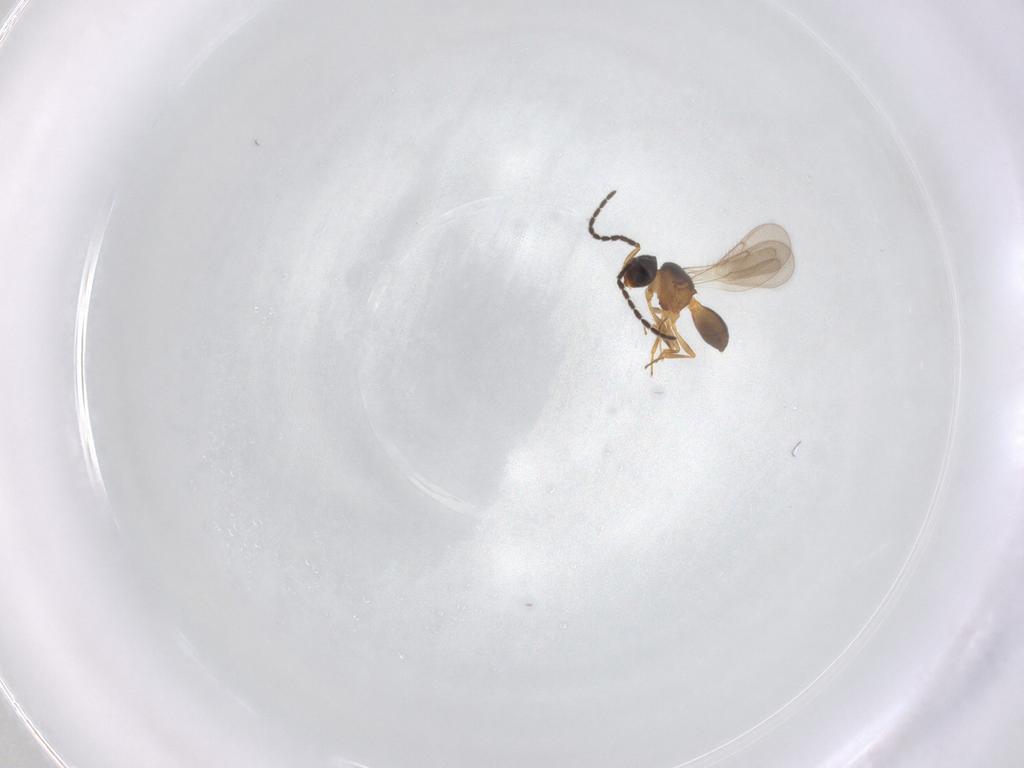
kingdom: Animalia
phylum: Arthropoda
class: Insecta
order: Hymenoptera
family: Scelionidae
